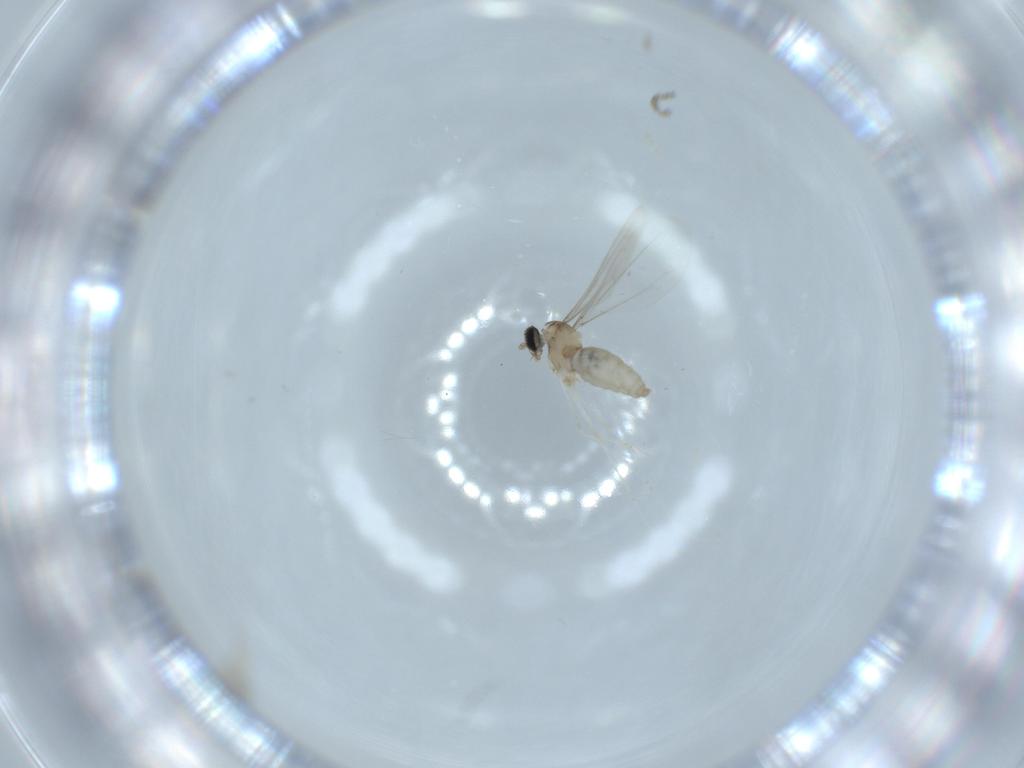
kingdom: Animalia
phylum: Arthropoda
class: Insecta
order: Diptera
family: Cecidomyiidae
